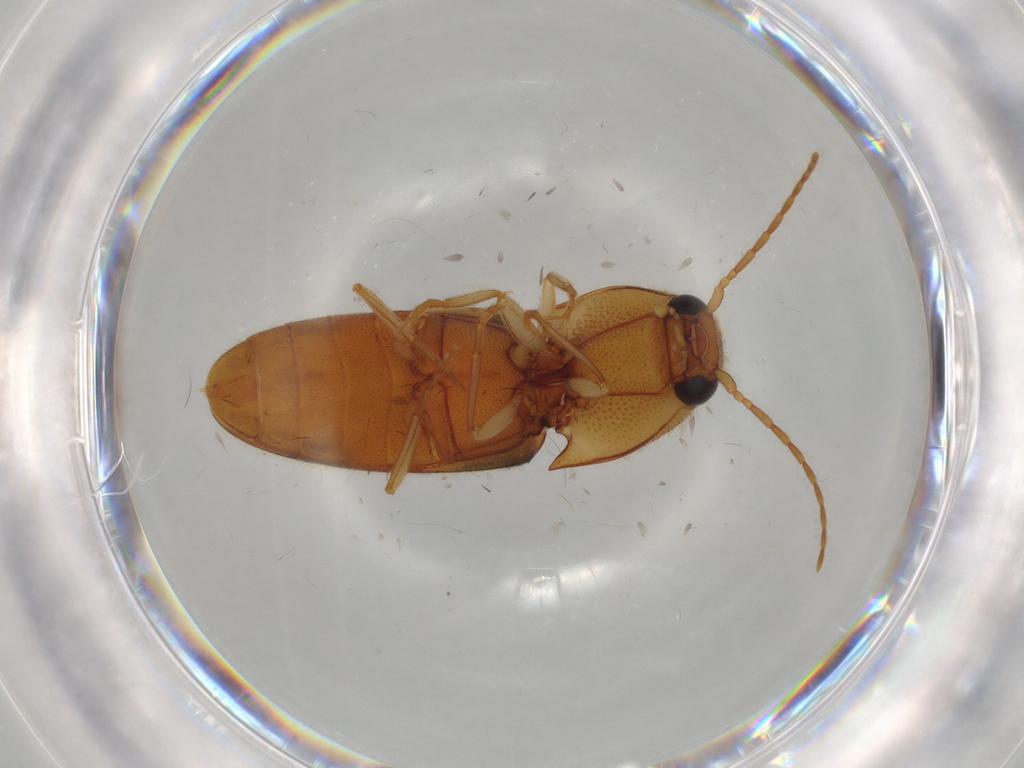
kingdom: Animalia
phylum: Arthropoda
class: Insecta
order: Coleoptera
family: Elateridae
